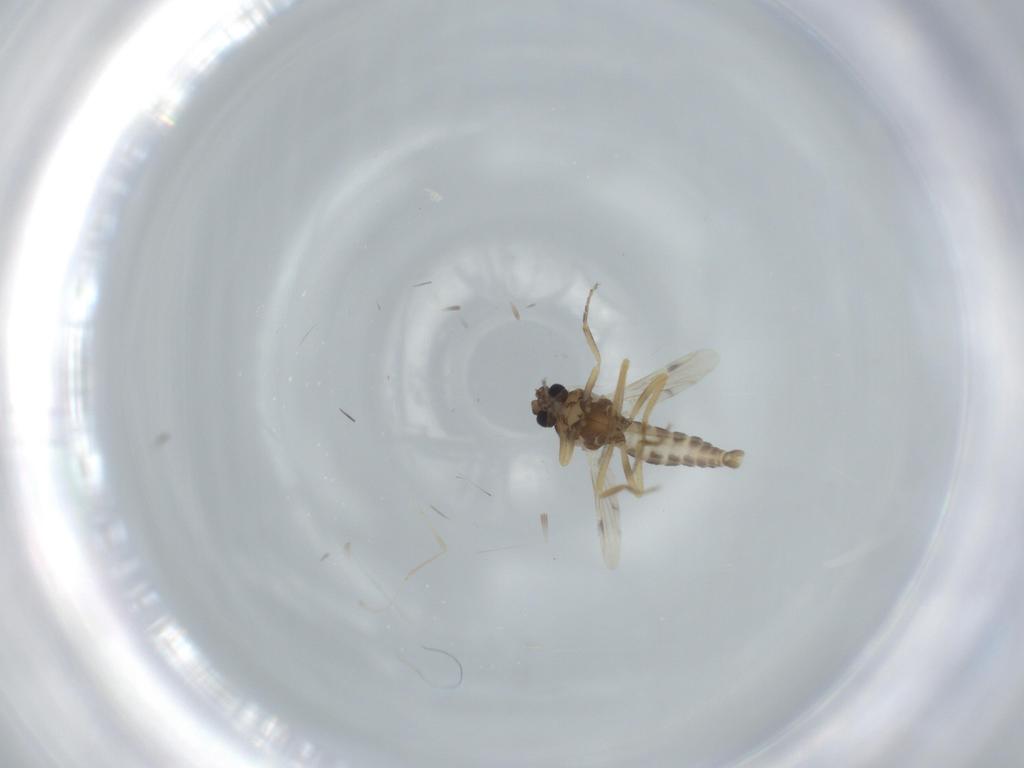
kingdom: Animalia
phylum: Arthropoda
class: Insecta
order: Diptera
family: Ceratopogonidae
